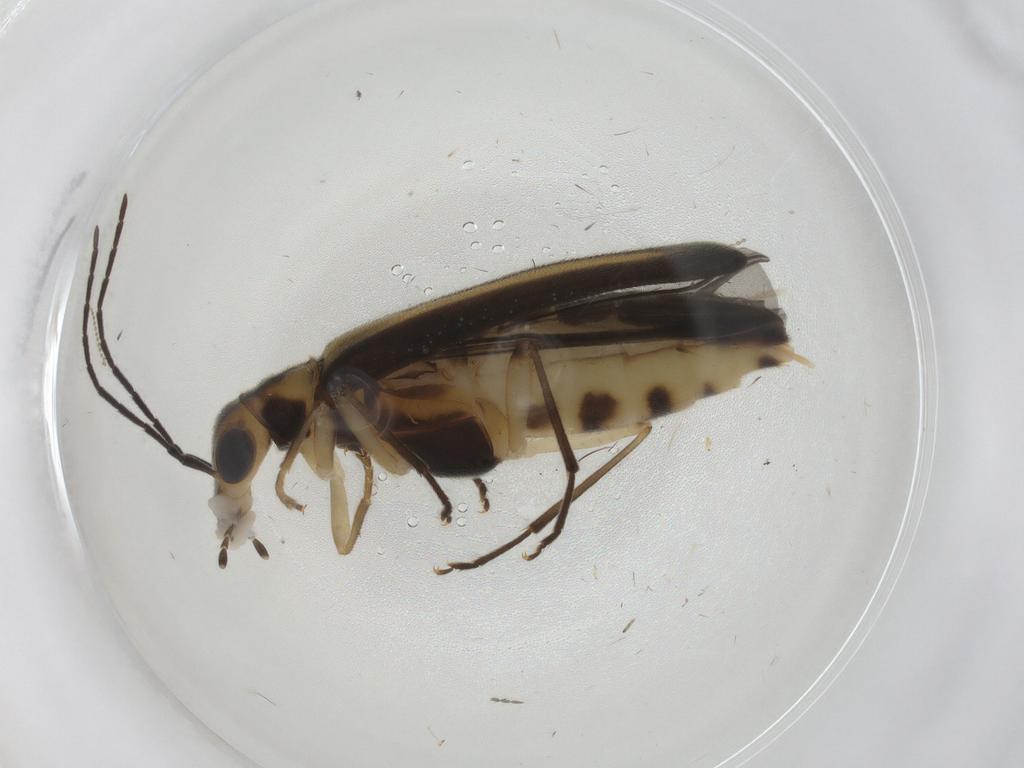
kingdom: Animalia
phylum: Arthropoda
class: Insecta
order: Coleoptera
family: Oedemeridae
